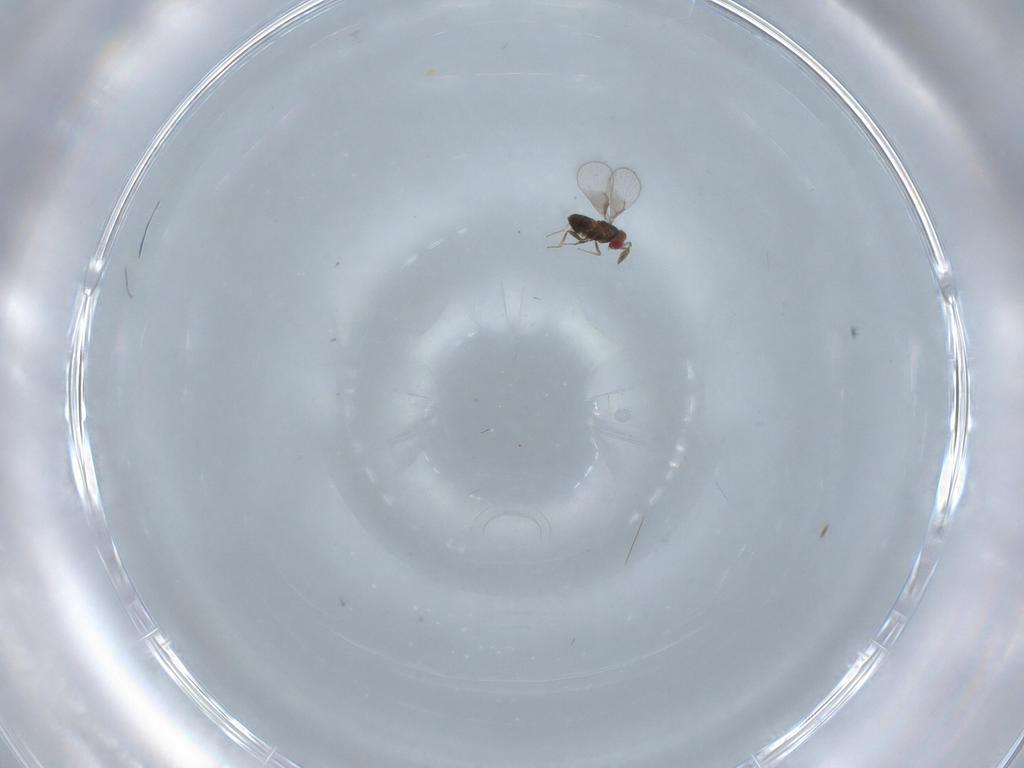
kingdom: Animalia
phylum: Arthropoda
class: Insecta
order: Hymenoptera
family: Trichogrammatidae
